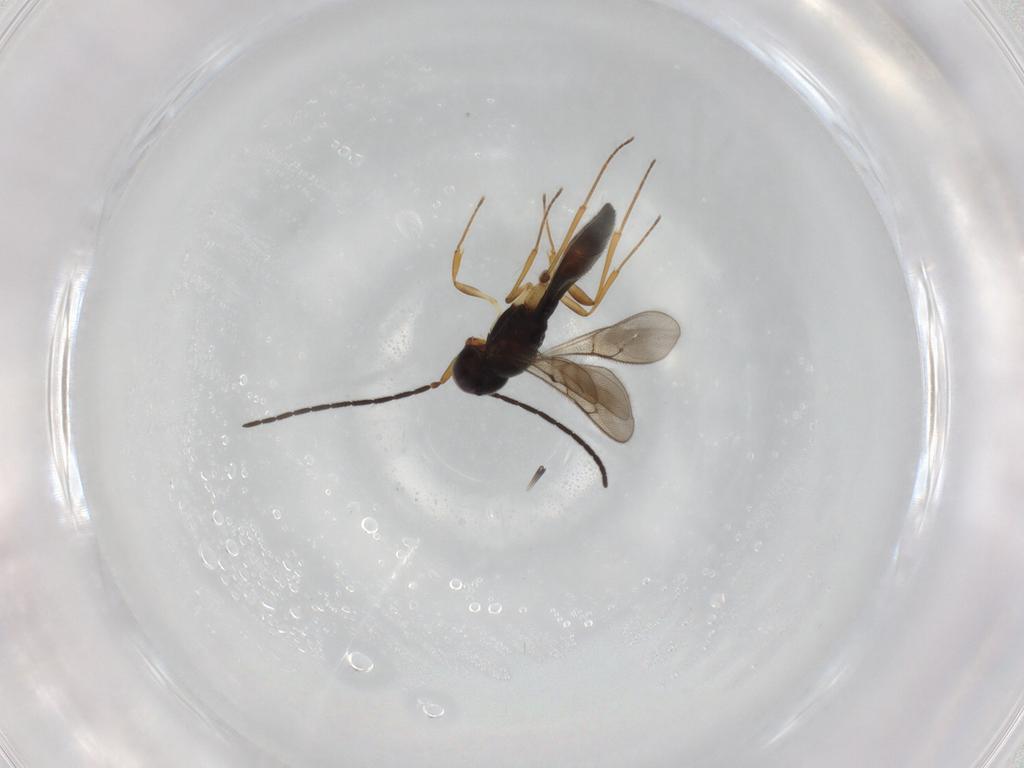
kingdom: Animalia
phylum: Arthropoda
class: Insecta
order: Hymenoptera
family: Scelionidae
